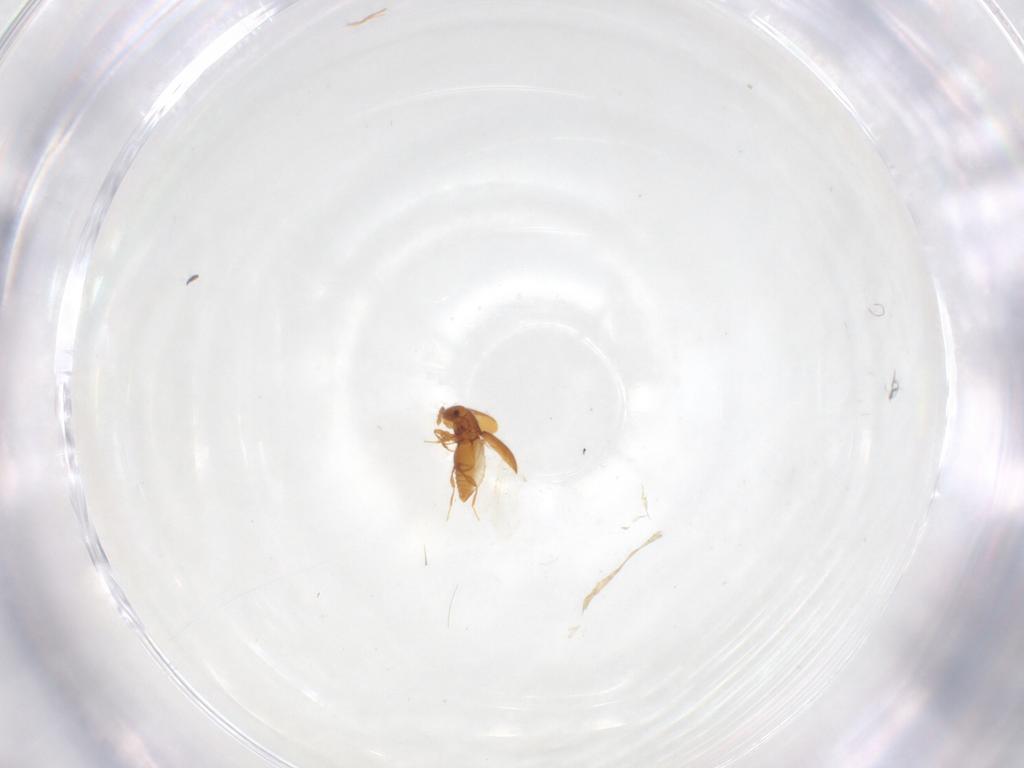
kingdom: Animalia
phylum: Arthropoda
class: Insecta
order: Coleoptera
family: Staphylinidae
